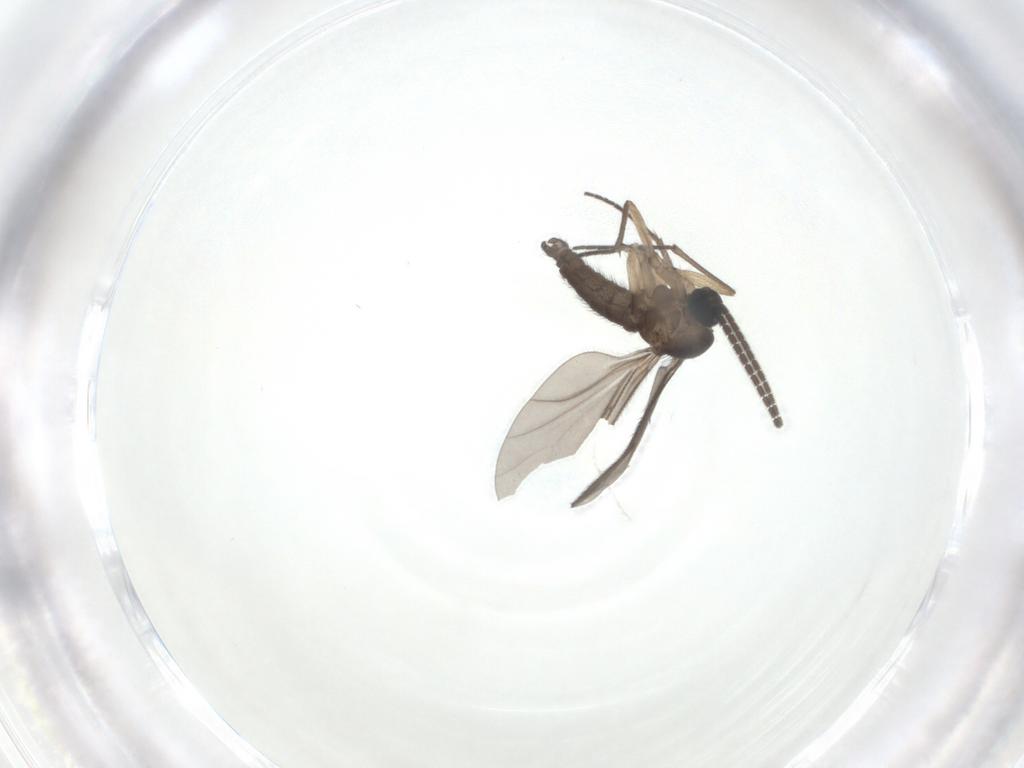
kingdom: Animalia
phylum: Arthropoda
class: Insecta
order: Diptera
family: Sciaridae
